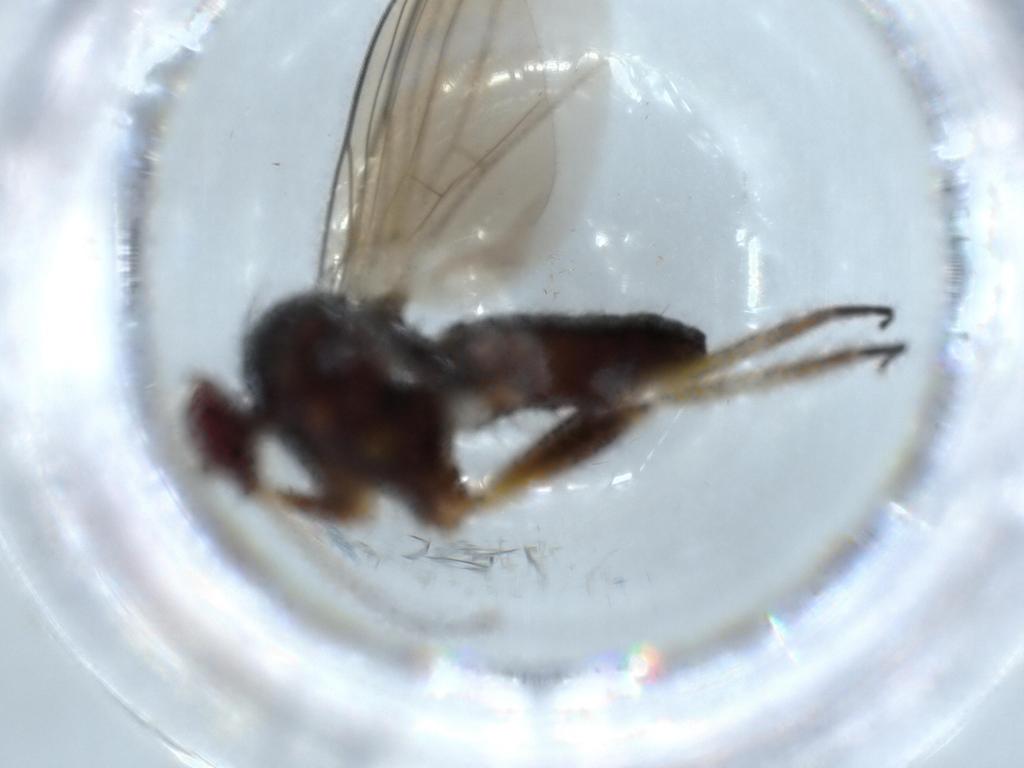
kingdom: Animalia
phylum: Arthropoda
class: Insecta
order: Diptera
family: Dolichopodidae
